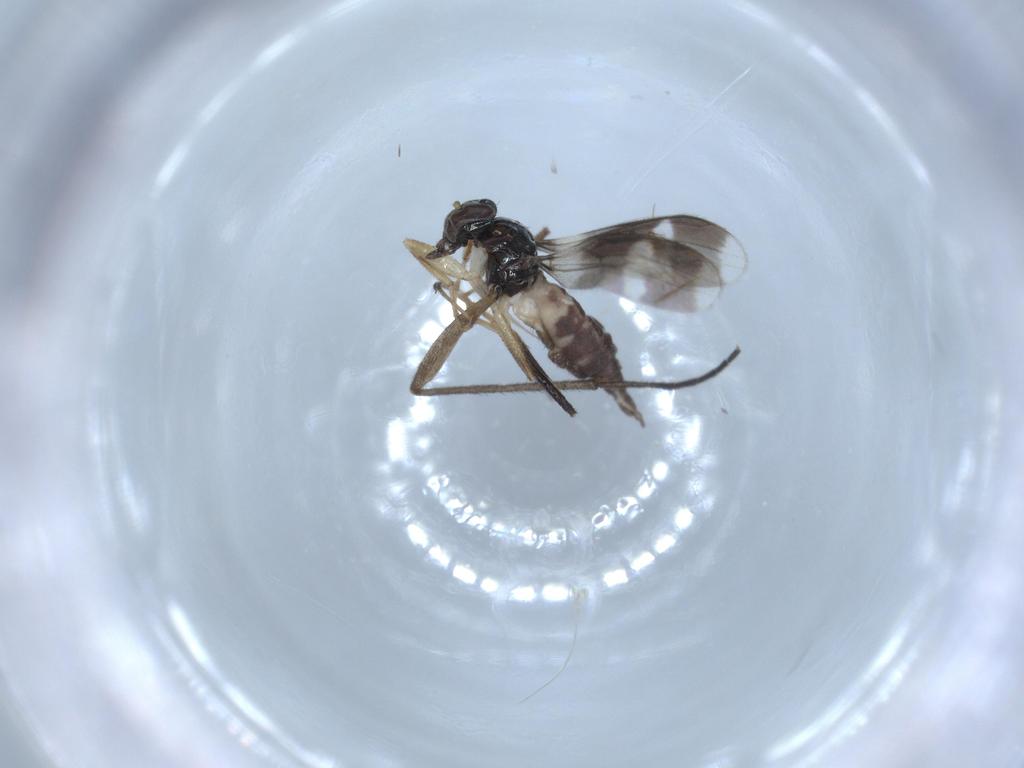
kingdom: Animalia
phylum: Arthropoda
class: Insecta
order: Diptera
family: Hybotidae
